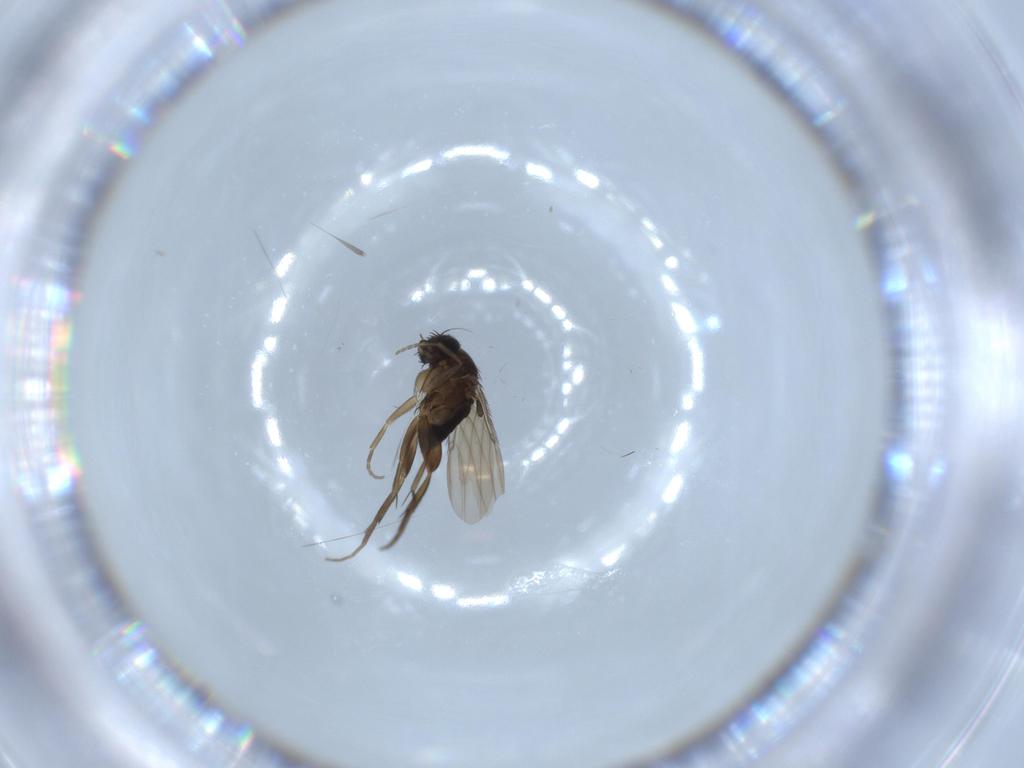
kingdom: Animalia
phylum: Arthropoda
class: Insecta
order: Diptera
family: Phoridae
